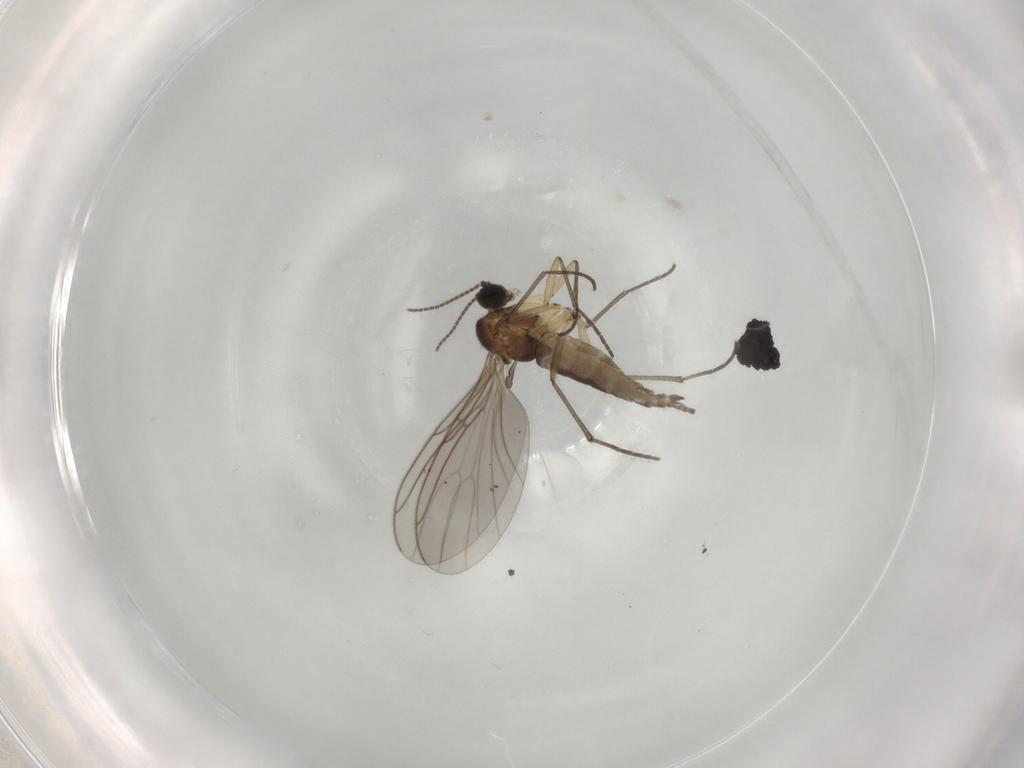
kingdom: Animalia
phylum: Arthropoda
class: Insecta
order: Diptera
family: Sciaridae
